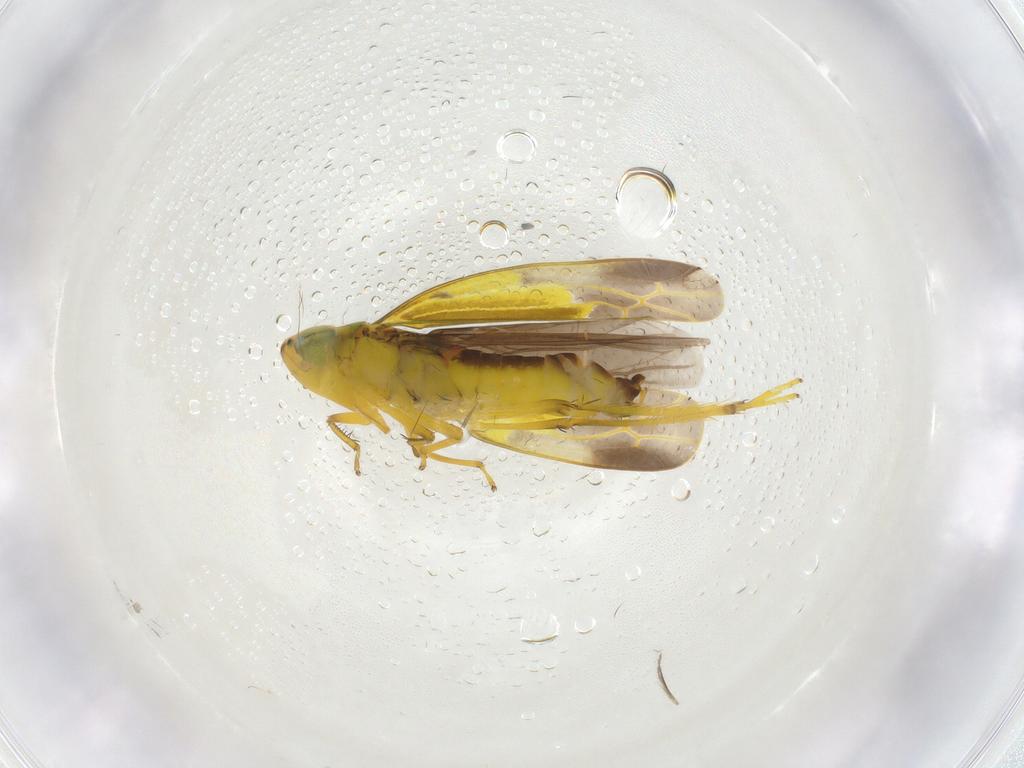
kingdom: Animalia
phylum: Arthropoda
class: Insecta
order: Hemiptera
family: Cicadellidae
